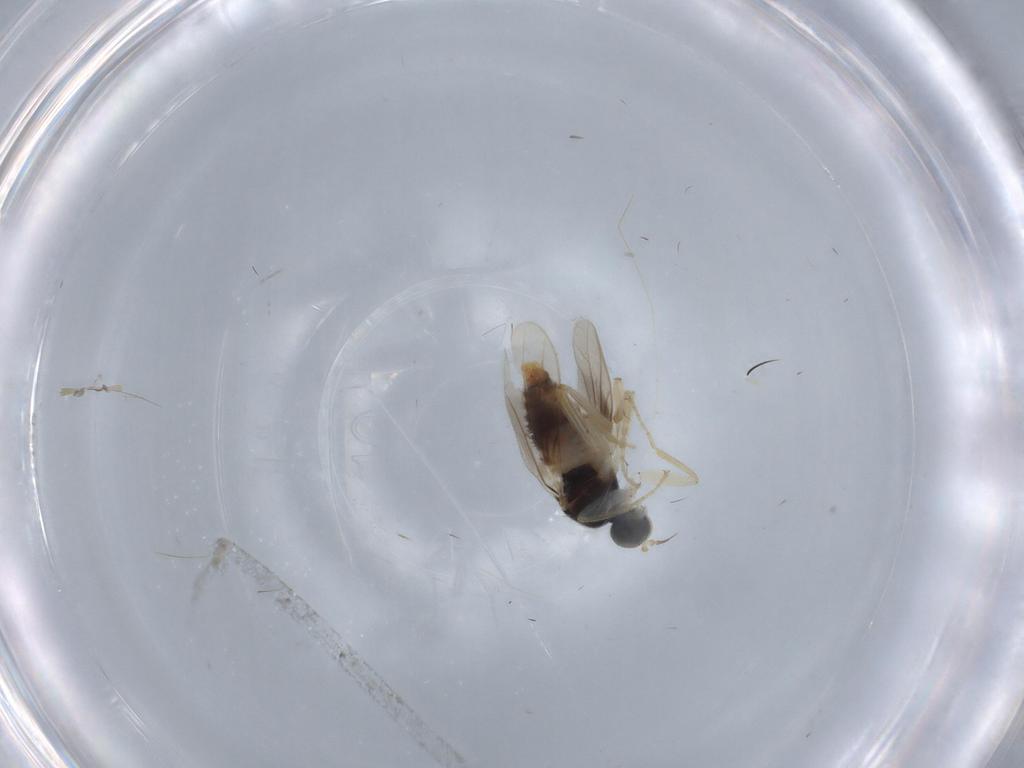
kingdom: Animalia
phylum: Arthropoda
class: Insecta
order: Diptera
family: Hybotidae
